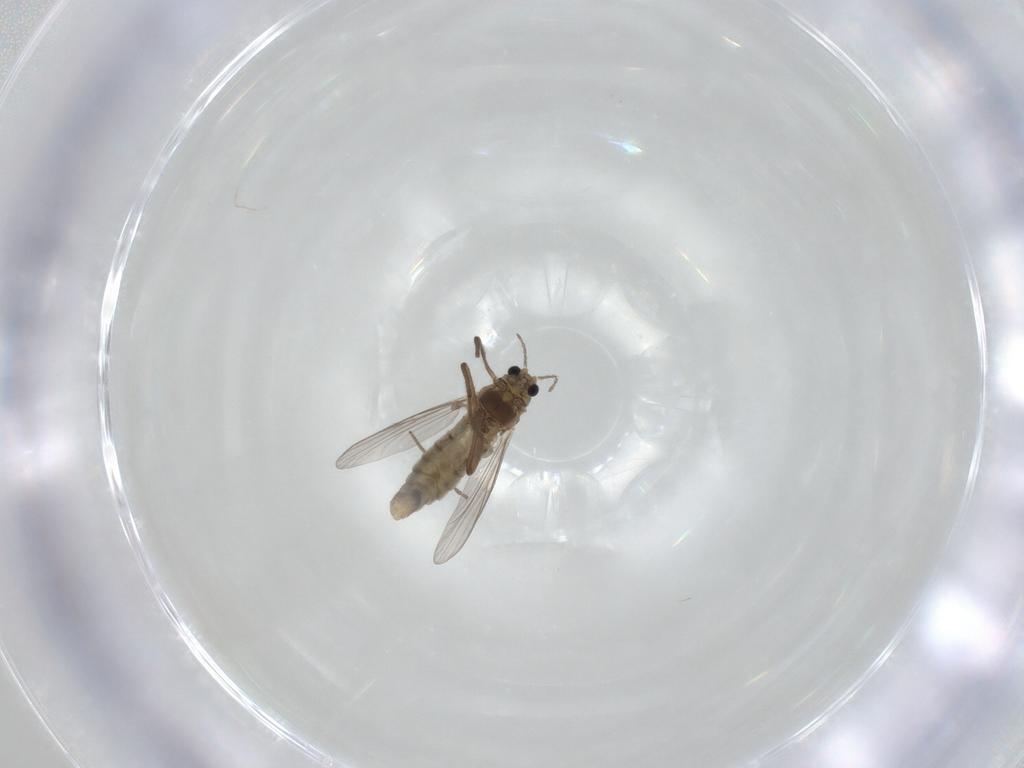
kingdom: Animalia
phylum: Arthropoda
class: Insecta
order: Diptera
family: Chironomidae
